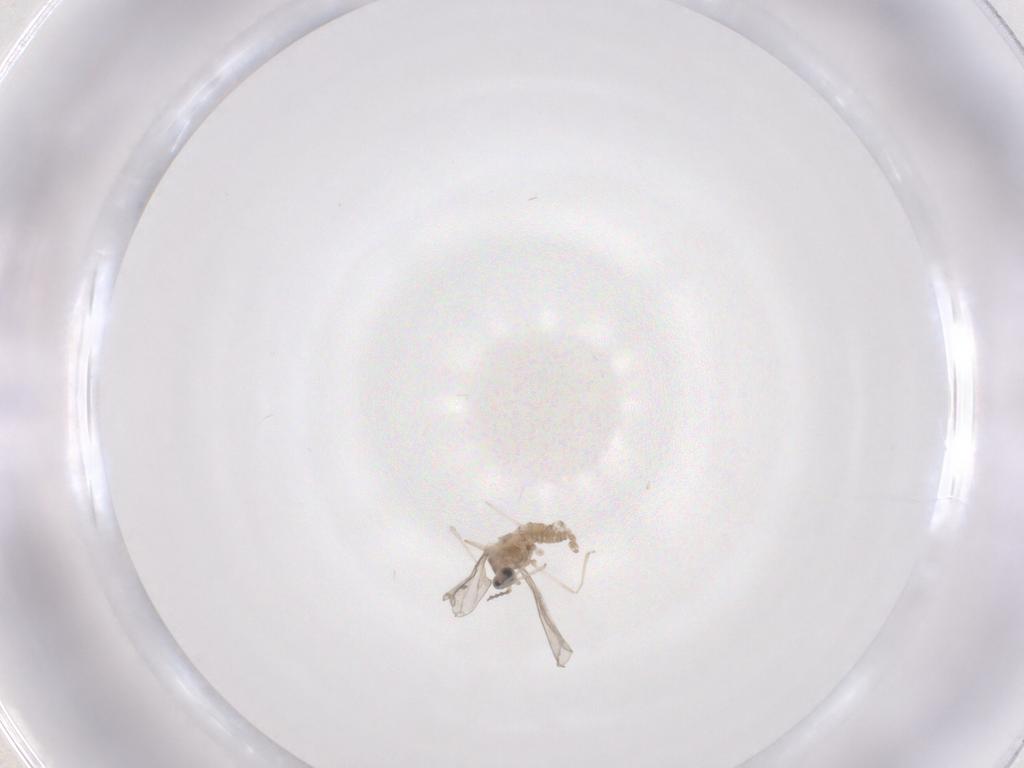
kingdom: Animalia
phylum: Arthropoda
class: Insecta
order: Diptera
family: Cecidomyiidae
